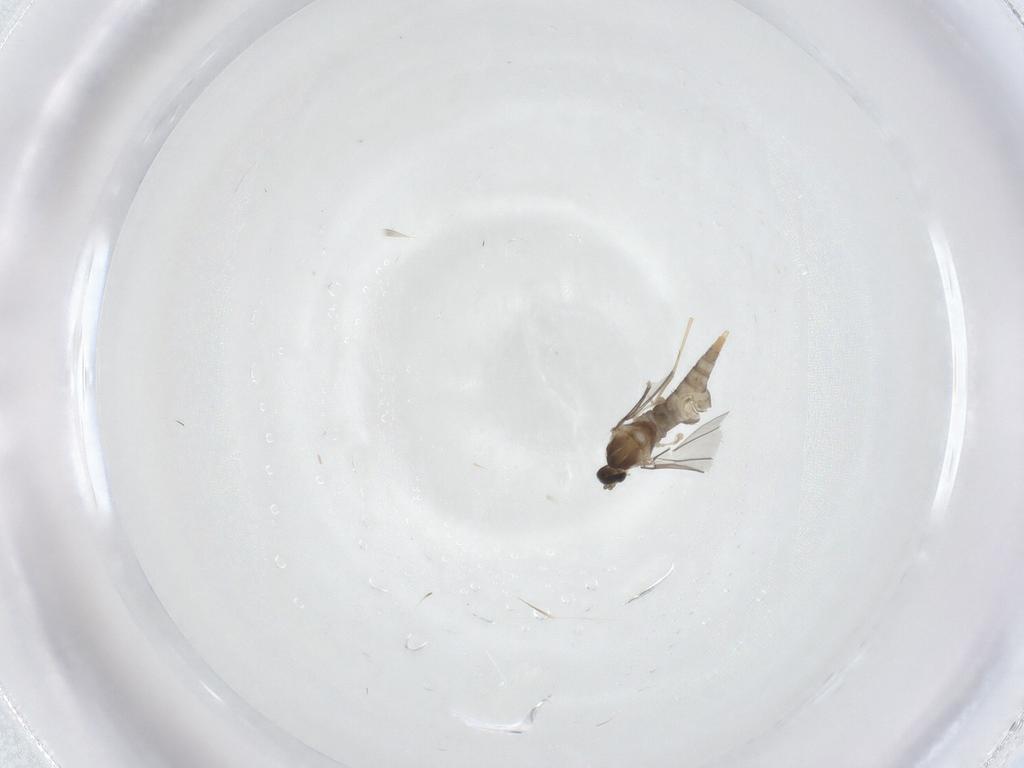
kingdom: Animalia
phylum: Arthropoda
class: Insecta
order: Diptera
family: Cecidomyiidae
